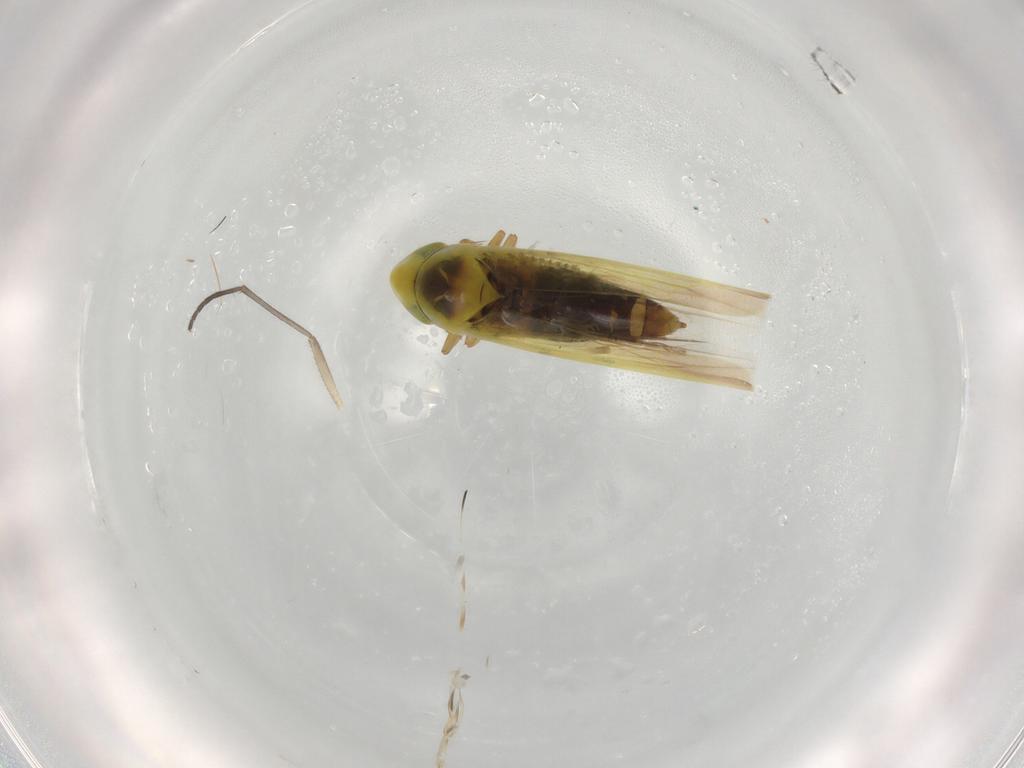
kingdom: Animalia
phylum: Arthropoda
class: Insecta
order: Hemiptera
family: Cicadellidae
